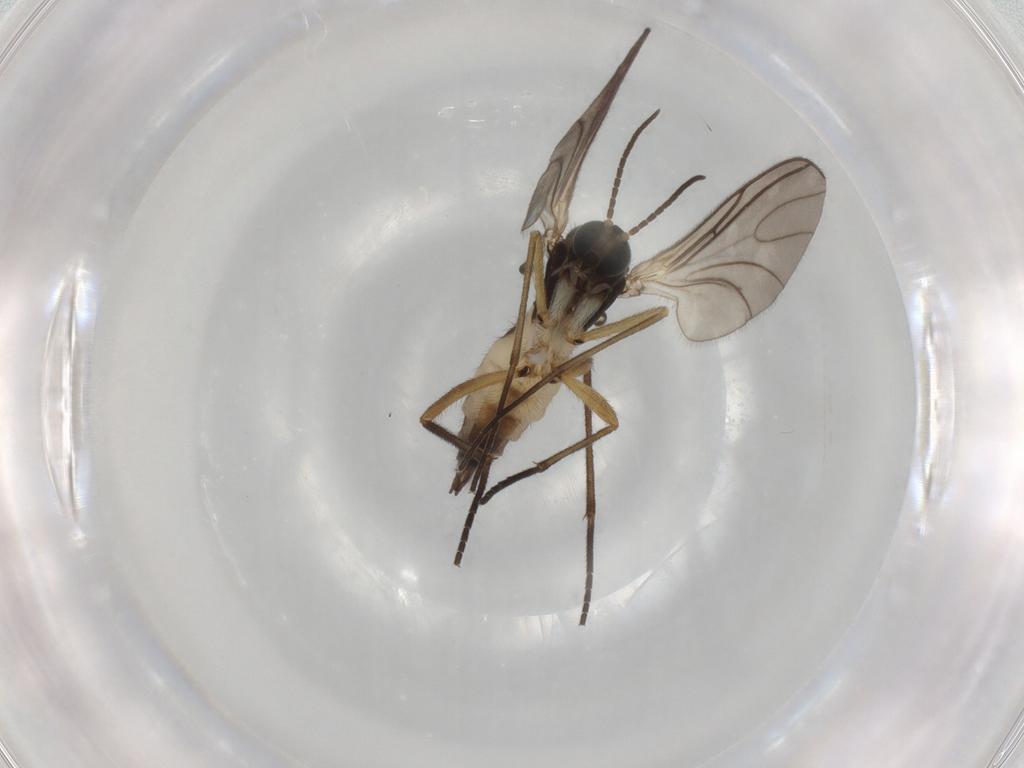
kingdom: Animalia
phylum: Arthropoda
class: Insecta
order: Diptera
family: Sciaridae
